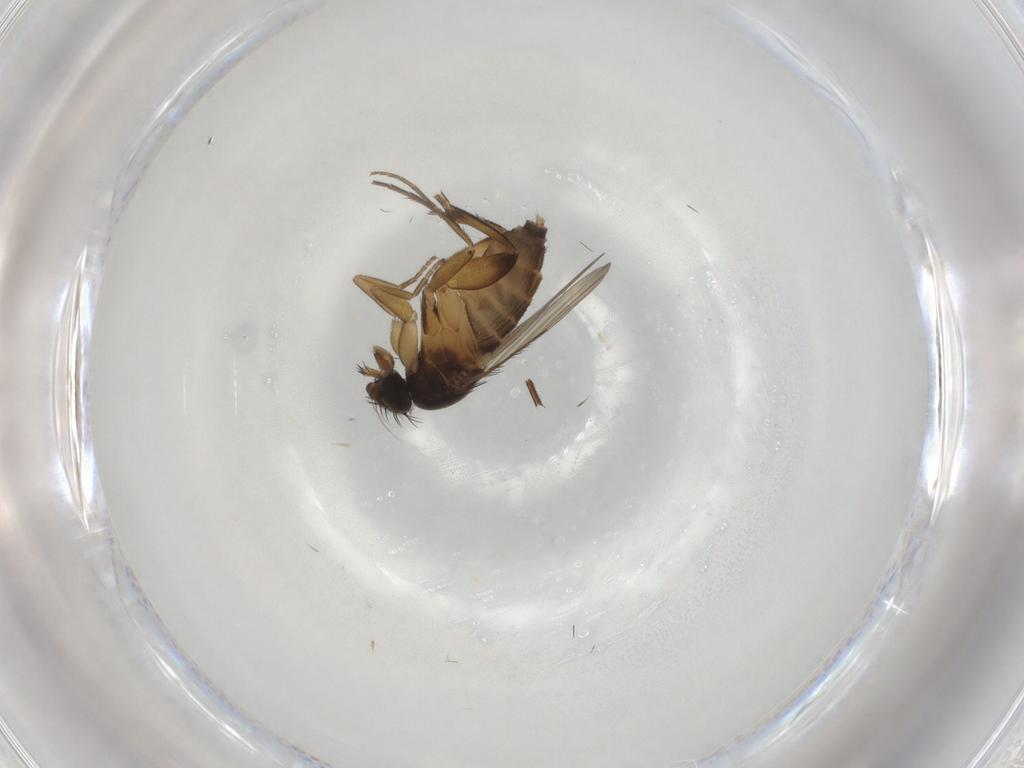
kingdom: Animalia
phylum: Arthropoda
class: Insecta
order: Diptera
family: Phoridae
